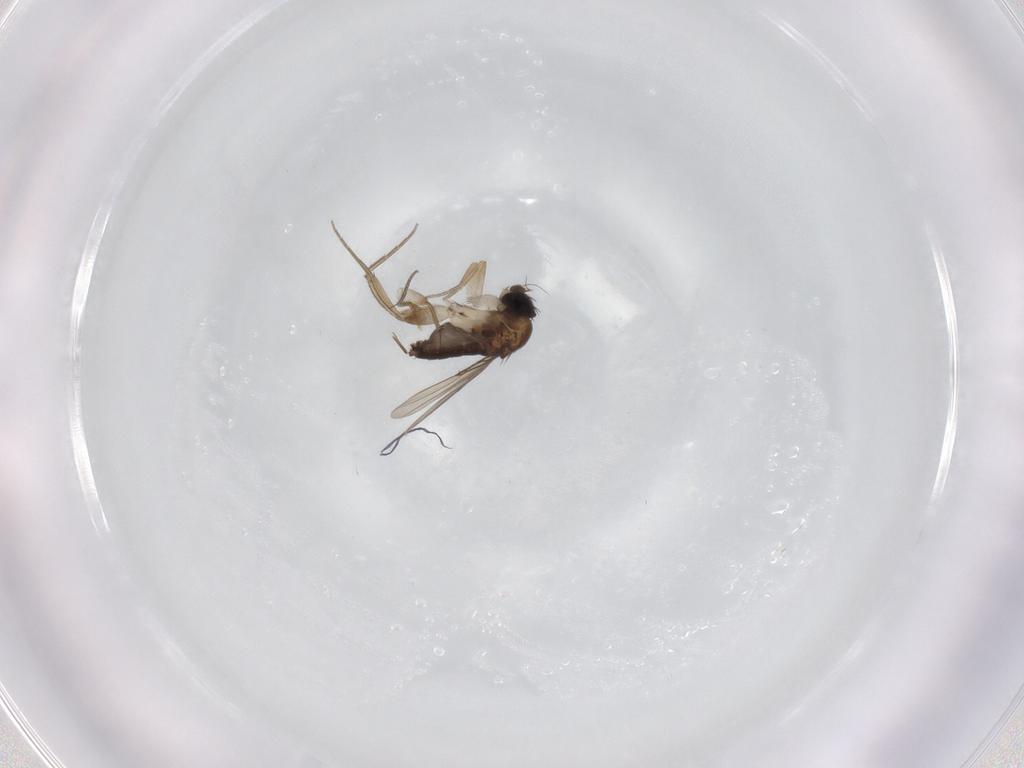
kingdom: Animalia
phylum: Arthropoda
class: Insecta
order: Diptera
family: Phoridae
